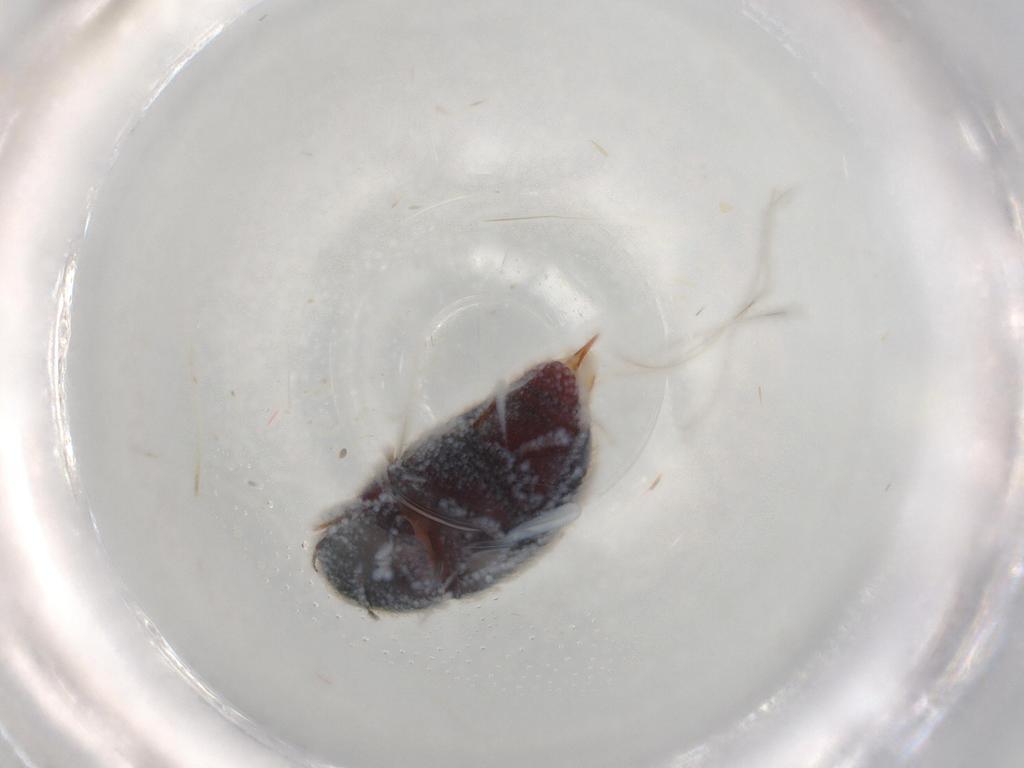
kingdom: Animalia
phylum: Arthropoda
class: Insecta
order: Coleoptera
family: Limnichidae
